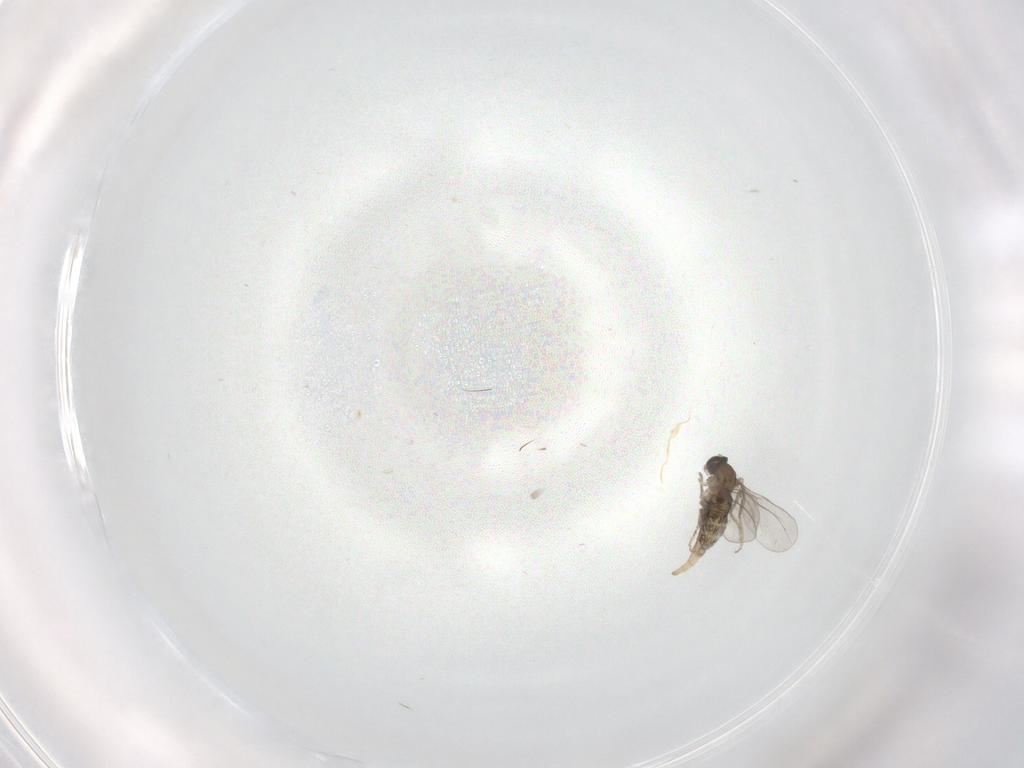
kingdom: Animalia
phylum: Arthropoda
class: Insecta
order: Diptera
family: Cecidomyiidae
